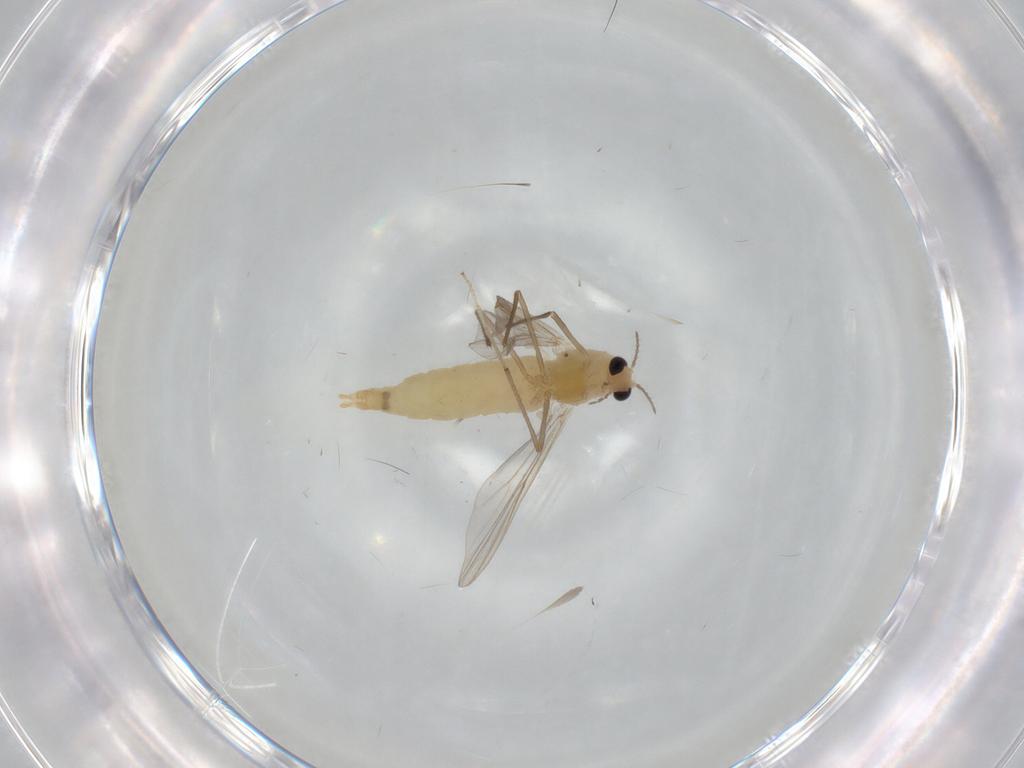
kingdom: Animalia
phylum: Arthropoda
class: Insecta
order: Diptera
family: Chironomidae
